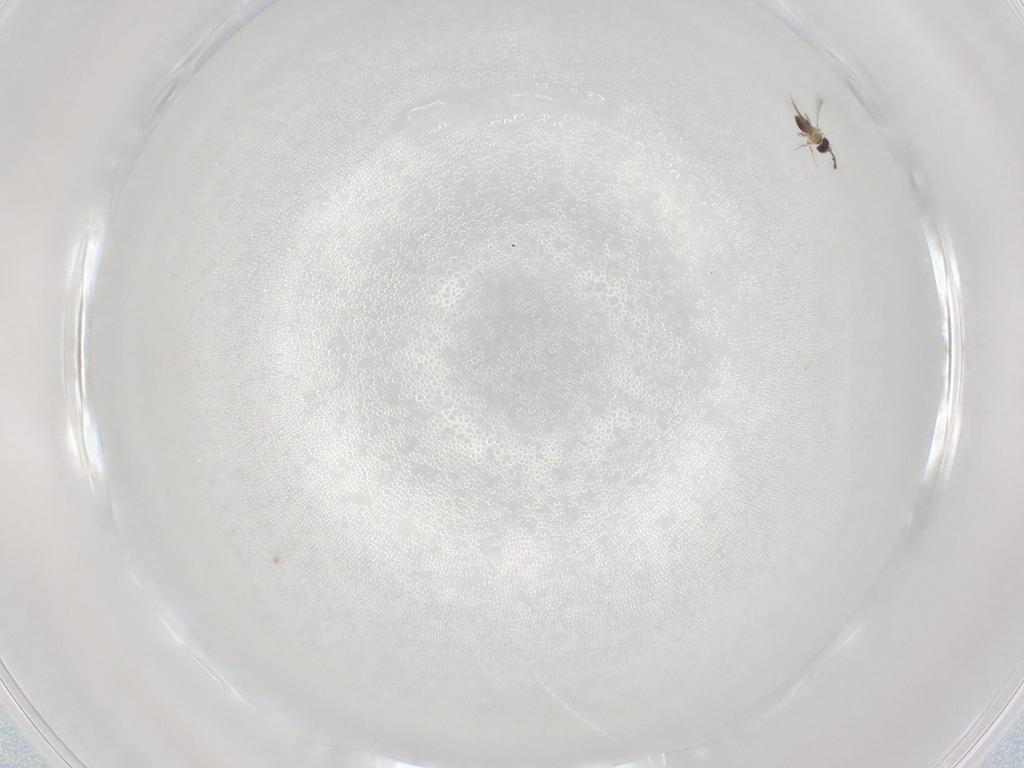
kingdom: Animalia
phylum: Arthropoda
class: Insecta
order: Hymenoptera
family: Mymaridae
